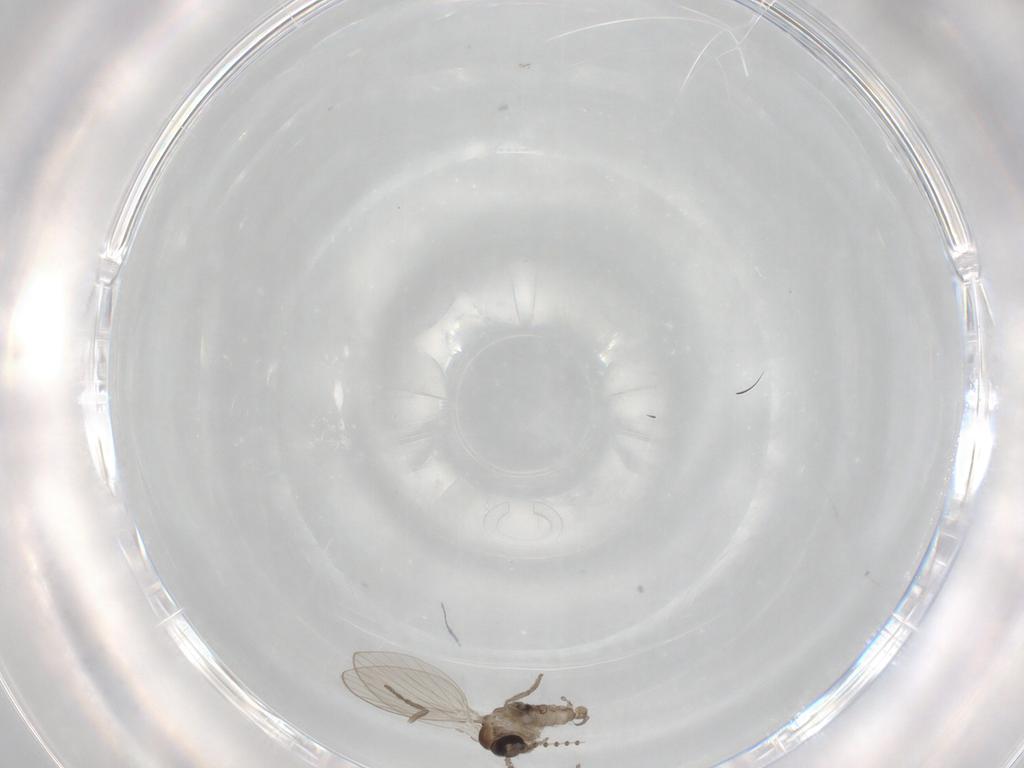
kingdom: Animalia
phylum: Arthropoda
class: Insecta
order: Diptera
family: Psychodidae
